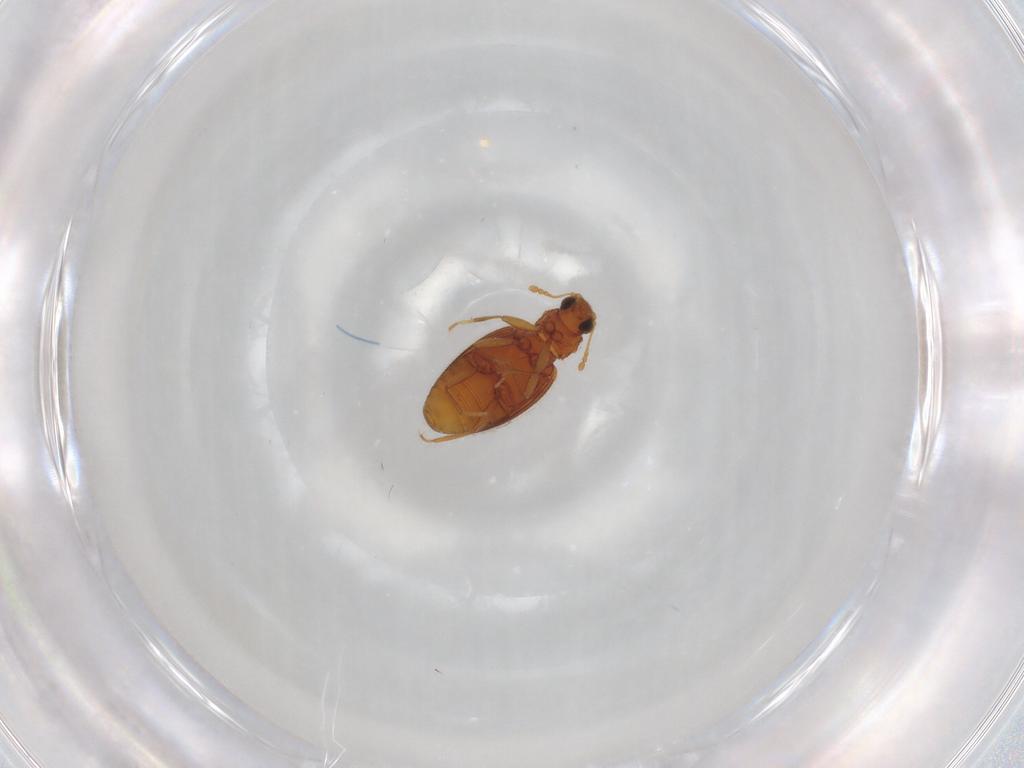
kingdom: Animalia
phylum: Arthropoda
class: Insecta
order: Coleoptera
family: Latridiidae
